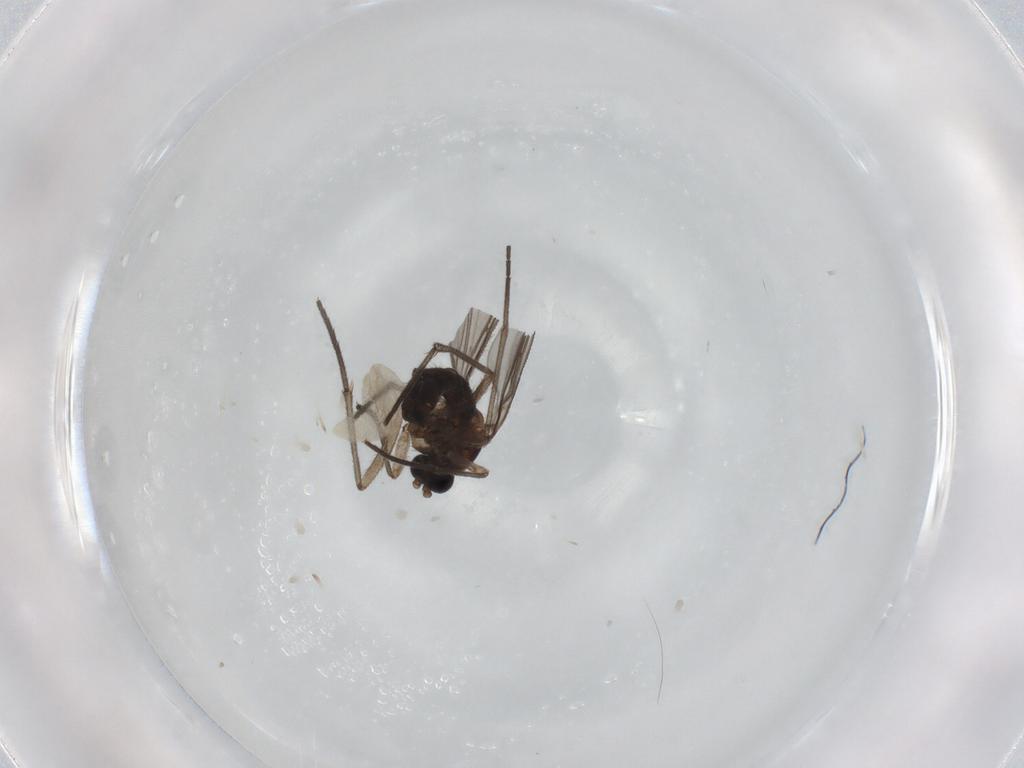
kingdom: Animalia
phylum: Arthropoda
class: Insecta
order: Diptera
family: Sciaridae
